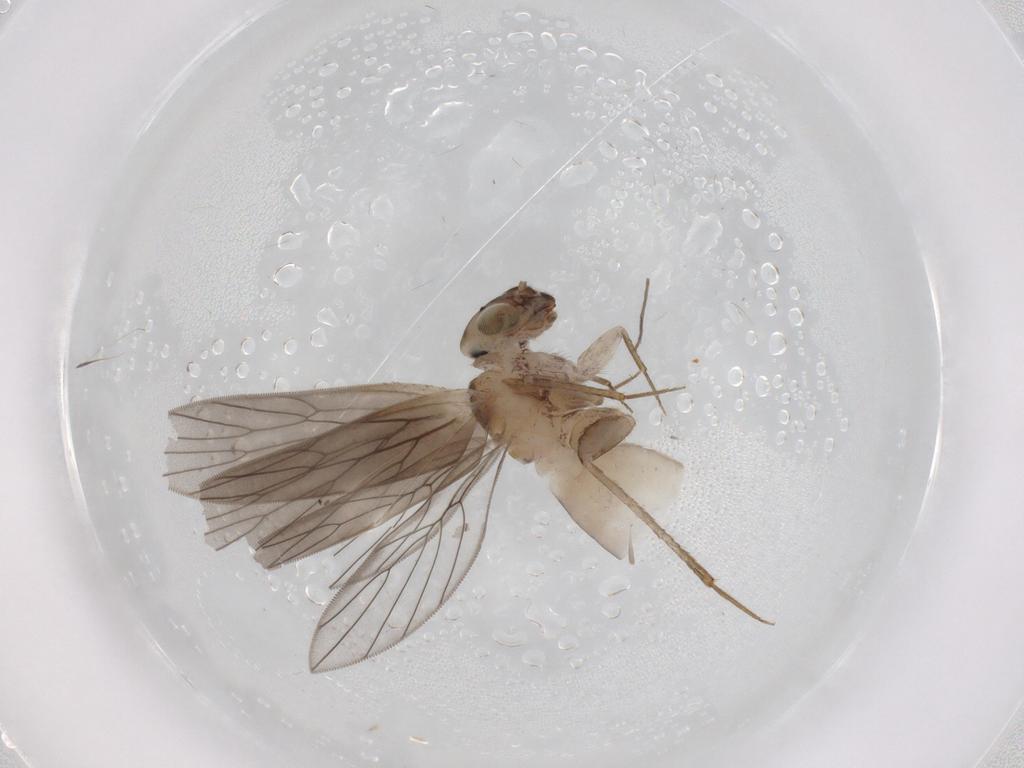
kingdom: Animalia
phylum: Arthropoda
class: Insecta
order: Psocodea
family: Lepidopsocidae
